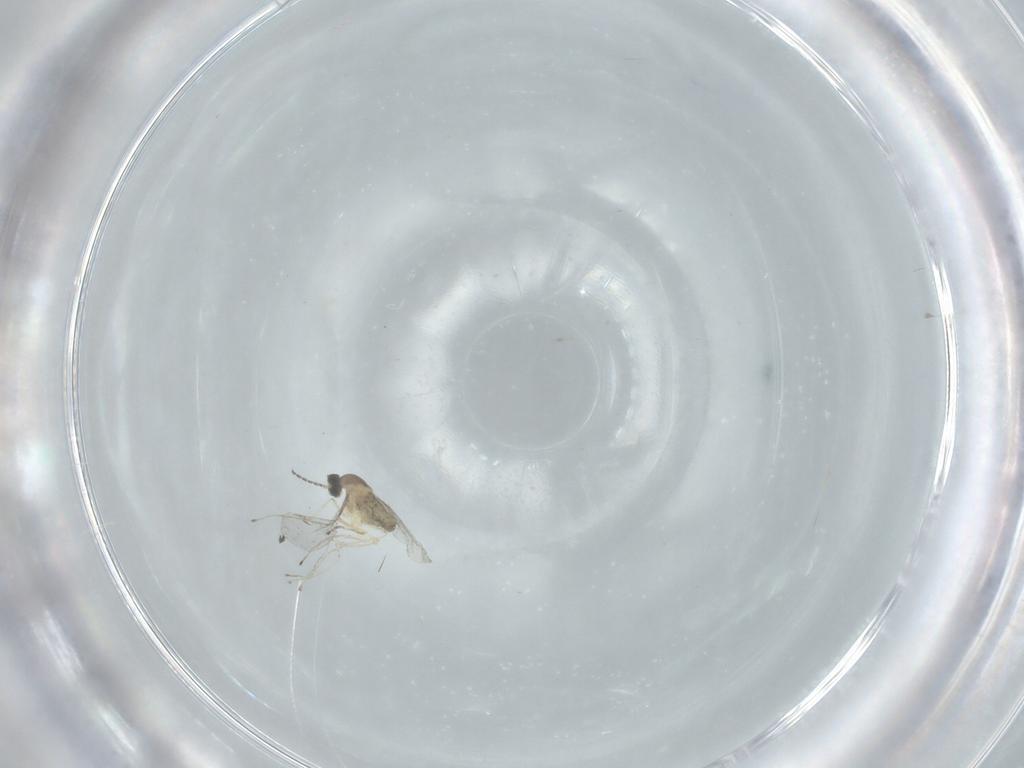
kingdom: Animalia
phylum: Arthropoda
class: Insecta
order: Diptera
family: Cecidomyiidae
